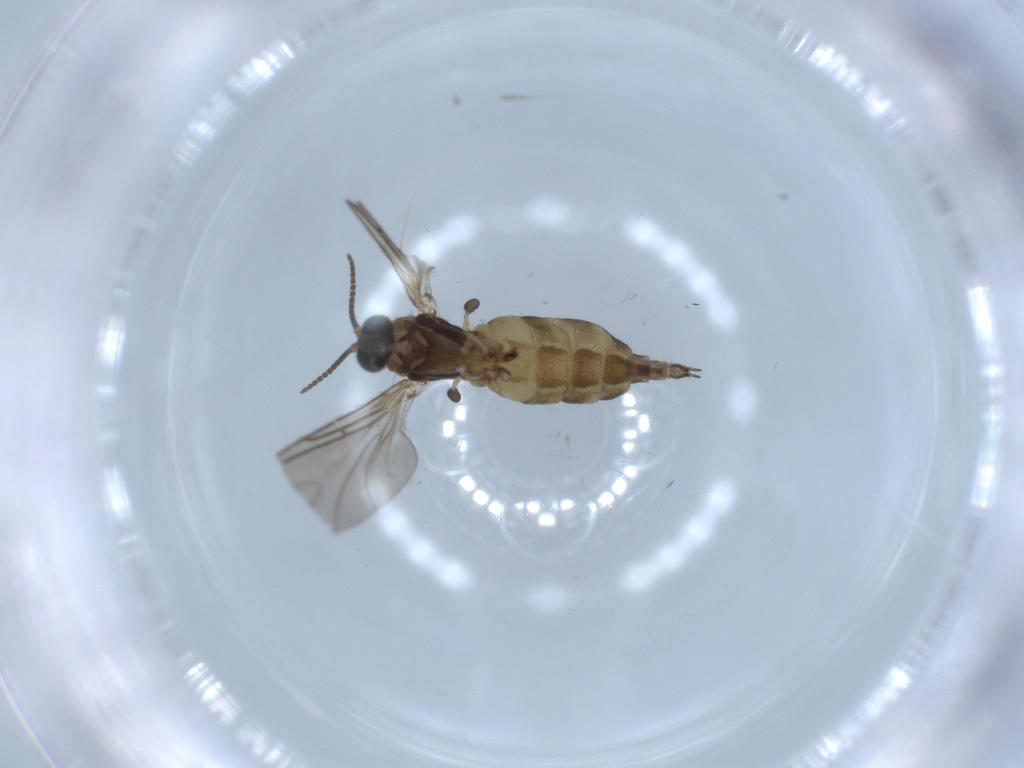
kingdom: Animalia
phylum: Arthropoda
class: Insecta
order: Diptera
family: Sciaridae
